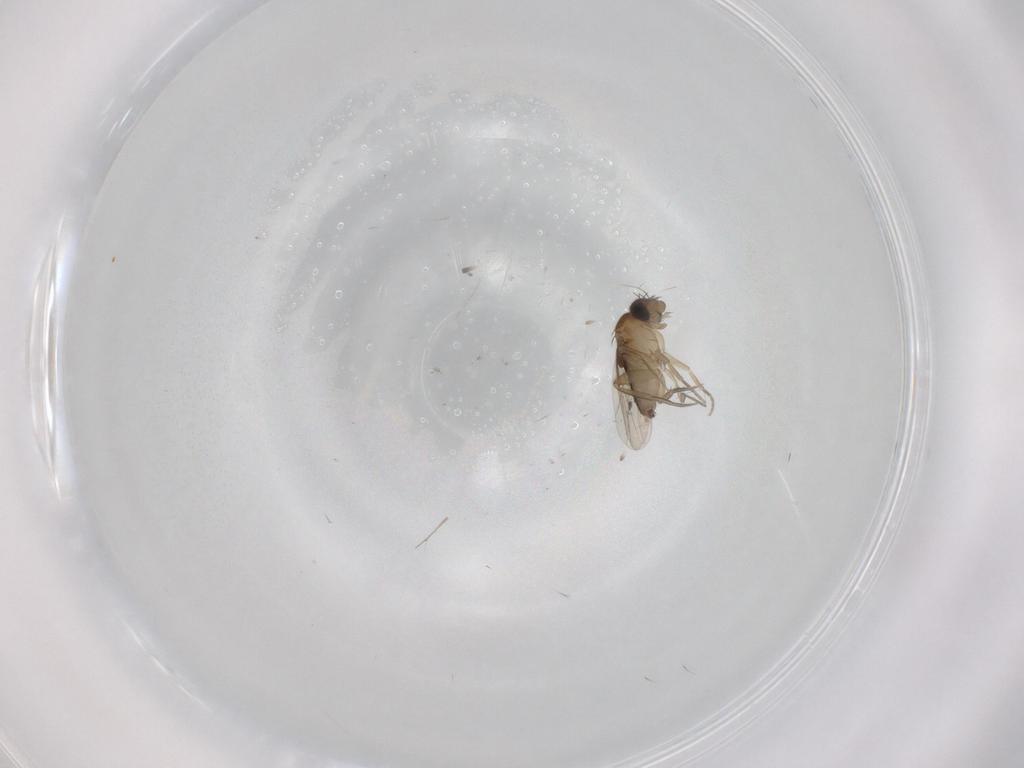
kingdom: Animalia
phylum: Arthropoda
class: Insecta
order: Diptera
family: Phoridae
